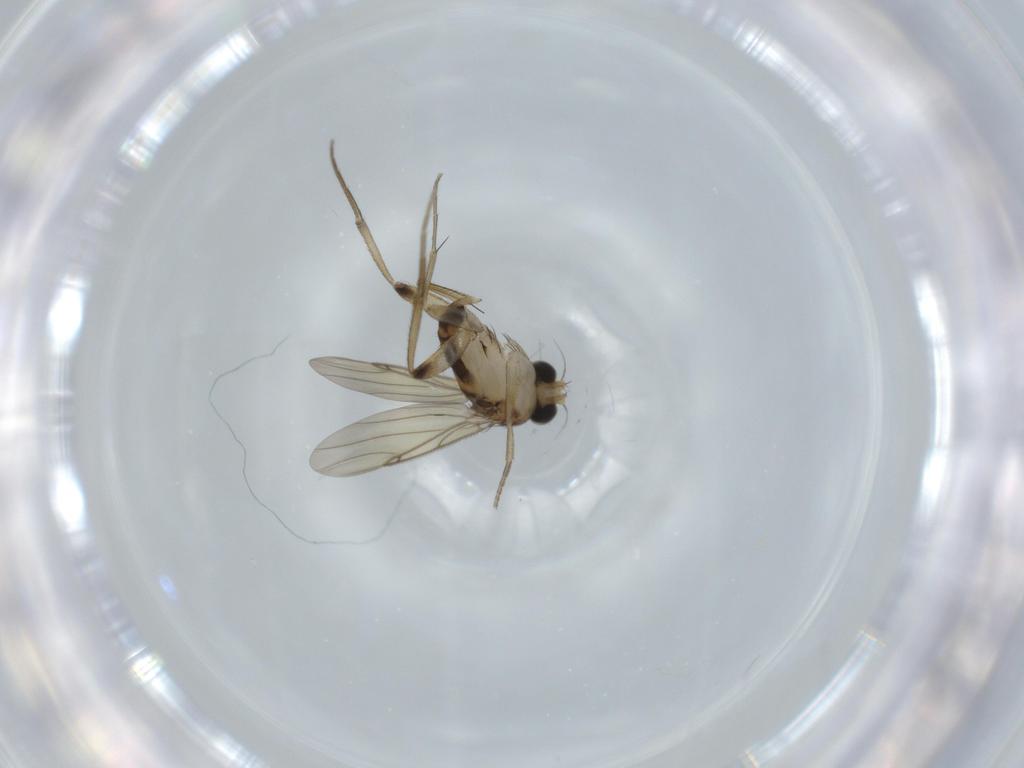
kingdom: Animalia
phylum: Arthropoda
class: Insecta
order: Diptera
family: Phoridae
